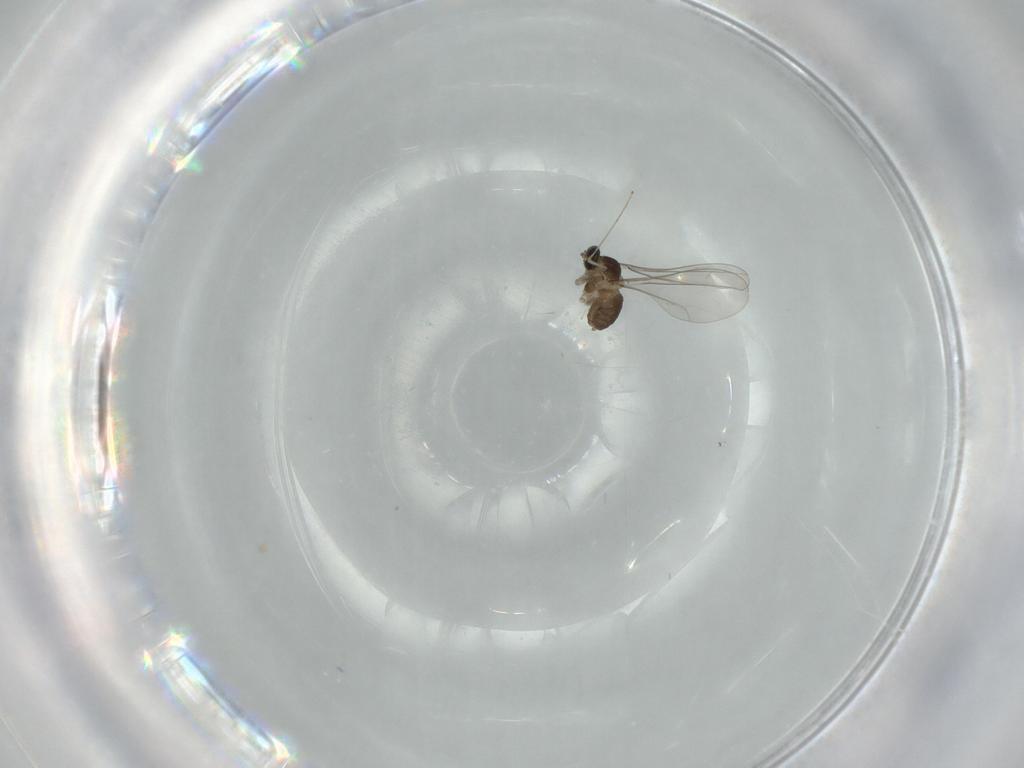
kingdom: Animalia
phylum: Arthropoda
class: Insecta
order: Diptera
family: Cecidomyiidae
